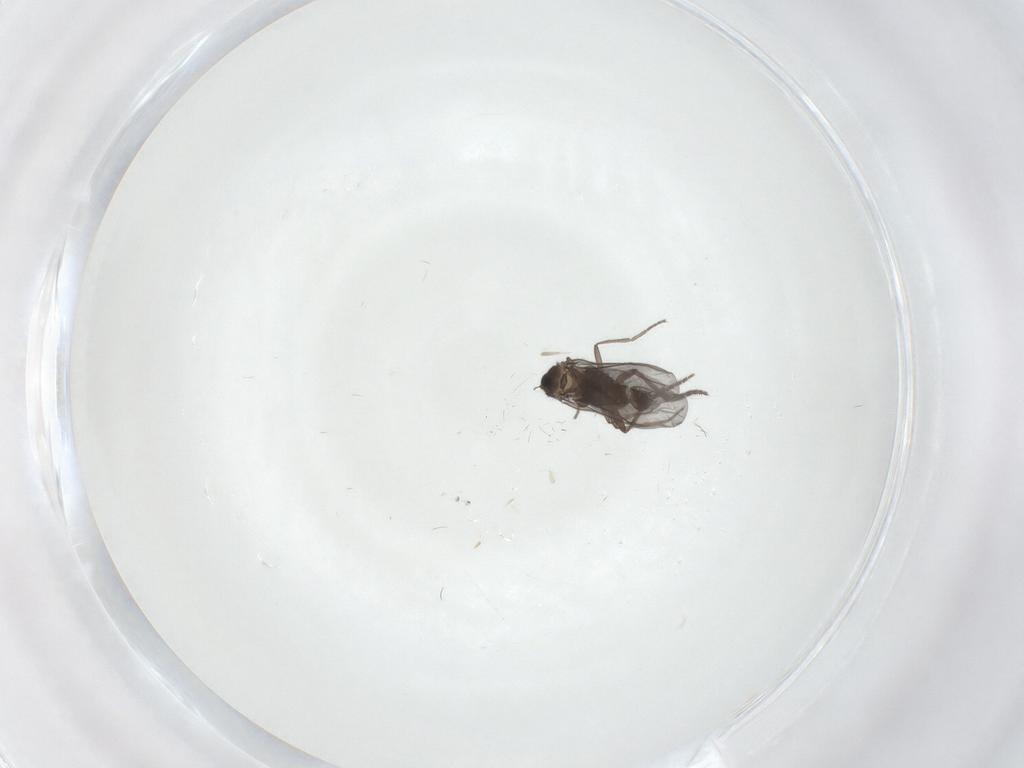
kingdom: Animalia
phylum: Arthropoda
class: Insecta
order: Diptera
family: Phoridae
